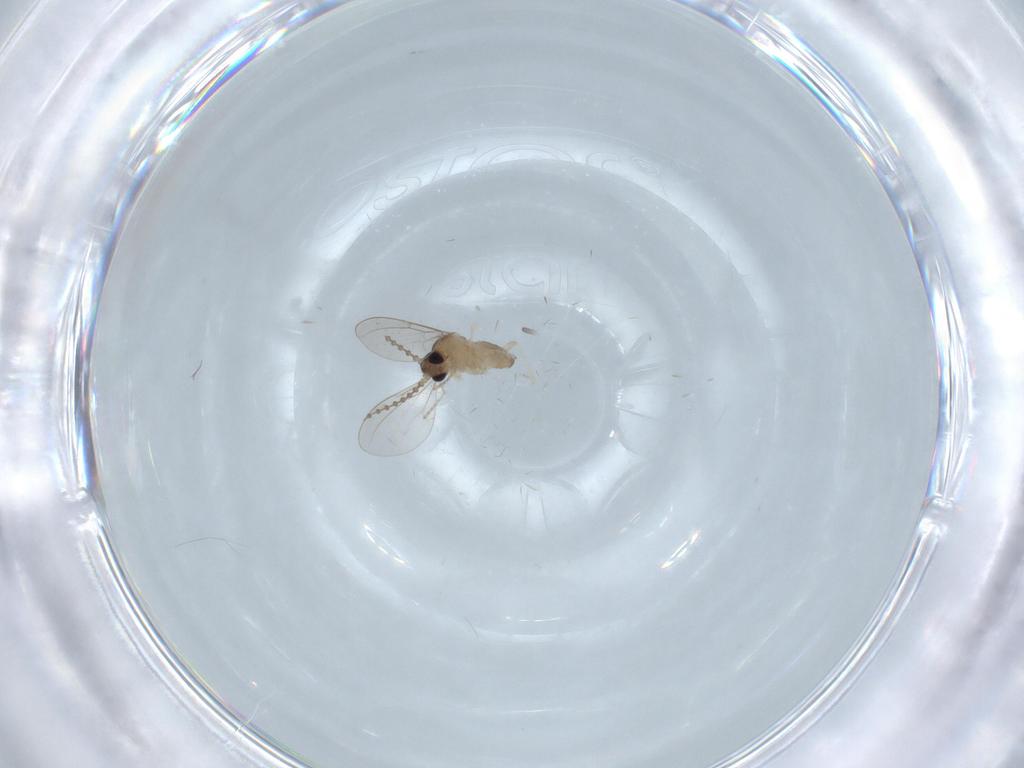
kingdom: Animalia
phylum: Arthropoda
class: Insecta
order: Diptera
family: Cecidomyiidae
